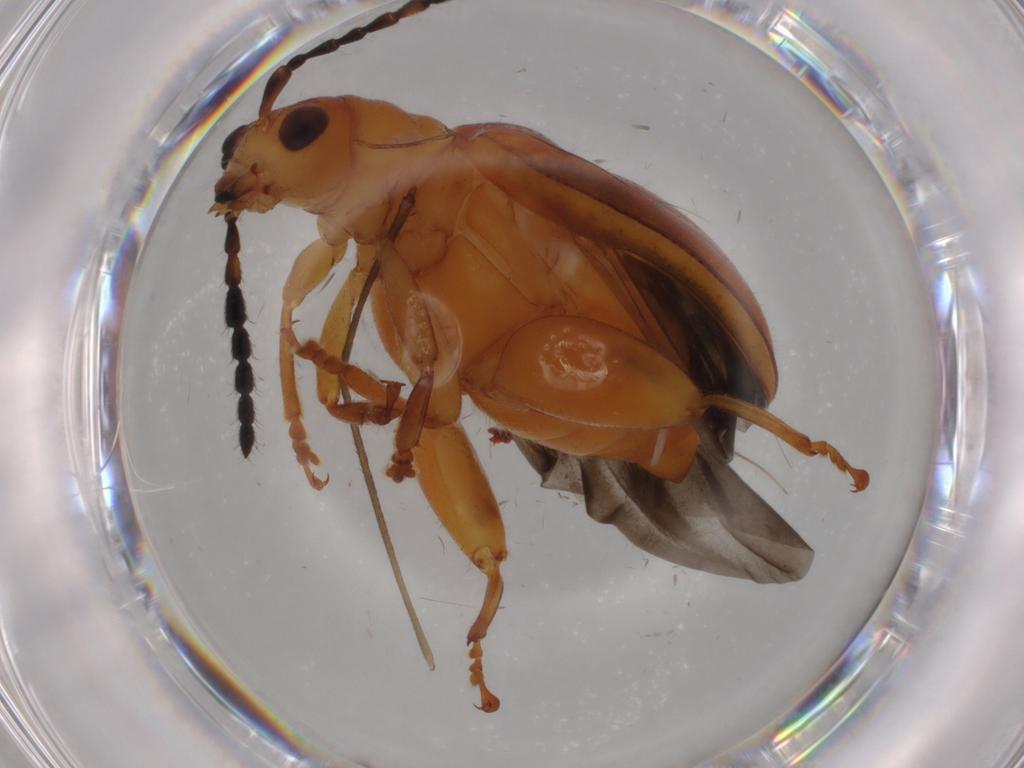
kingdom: Animalia
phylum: Arthropoda
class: Insecta
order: Coleoptera
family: Chrysomelidae
